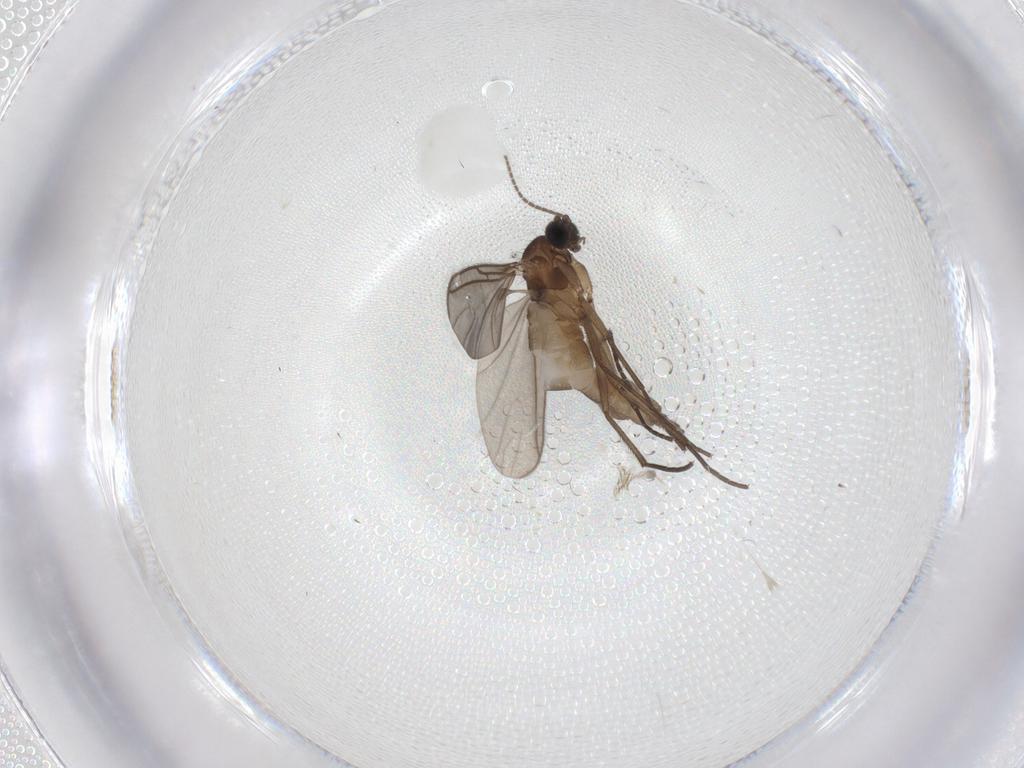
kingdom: Animalia
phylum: Arthropoda
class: Insecta
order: Diptera
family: Sciaridae
